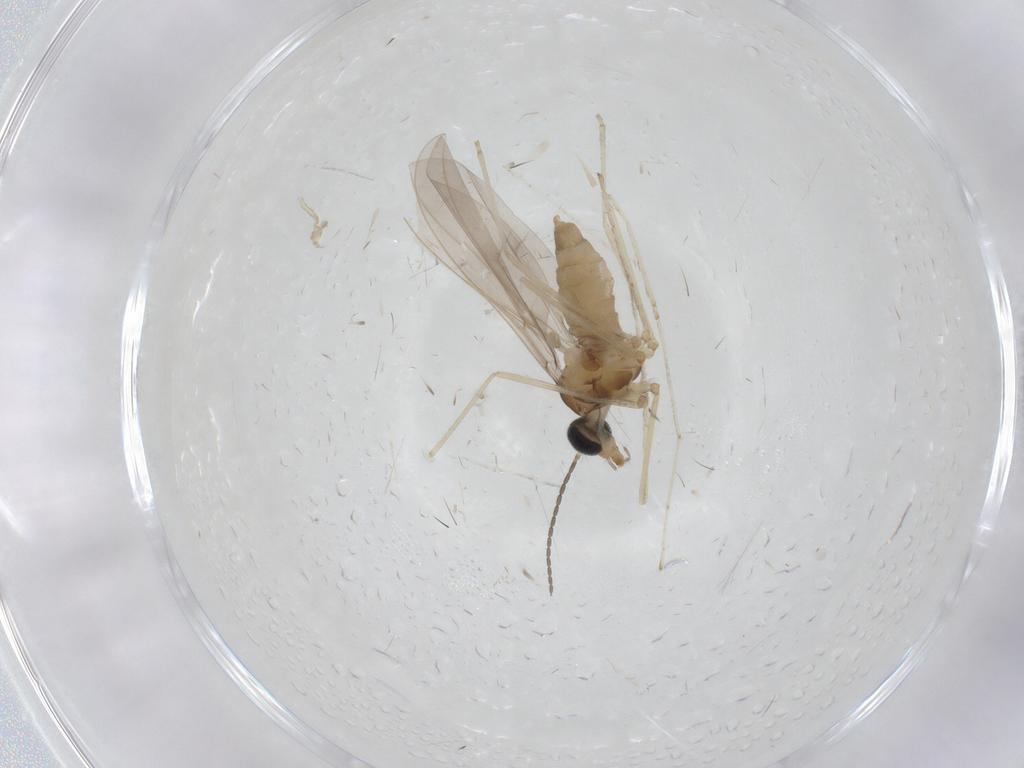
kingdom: Animalia
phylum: Arthropoda
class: Insecta
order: Diptera
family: Cecidomyiidae
